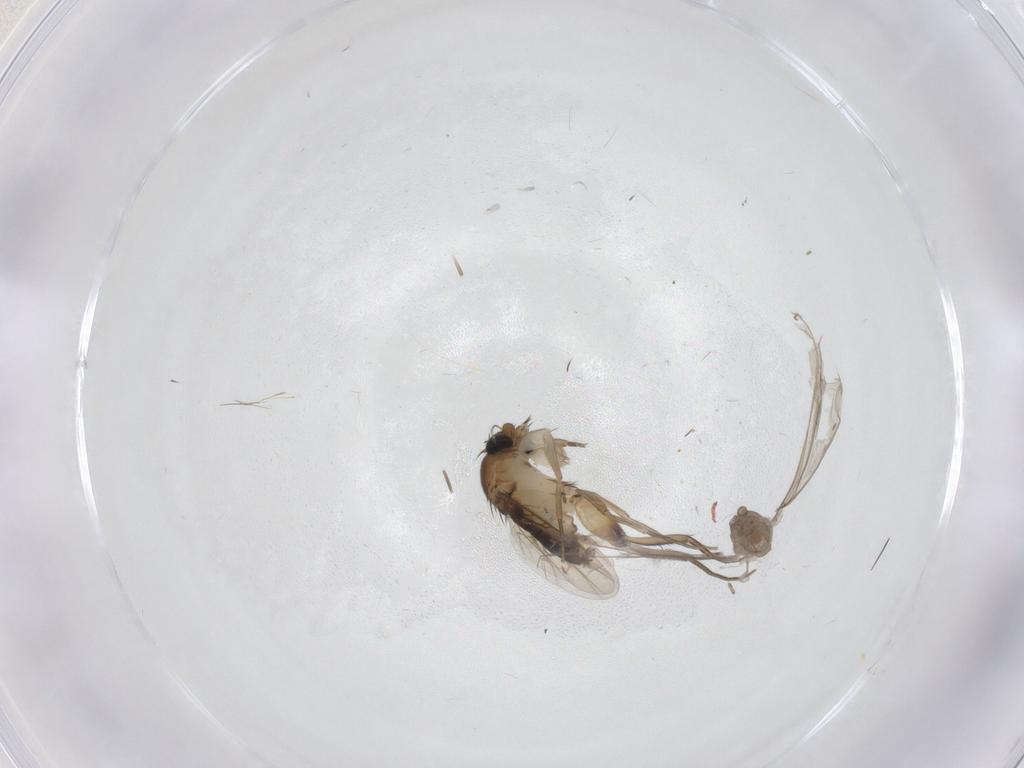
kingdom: Animalia
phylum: Arthropoda
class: Insecta
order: Diptera
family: Phoridae
